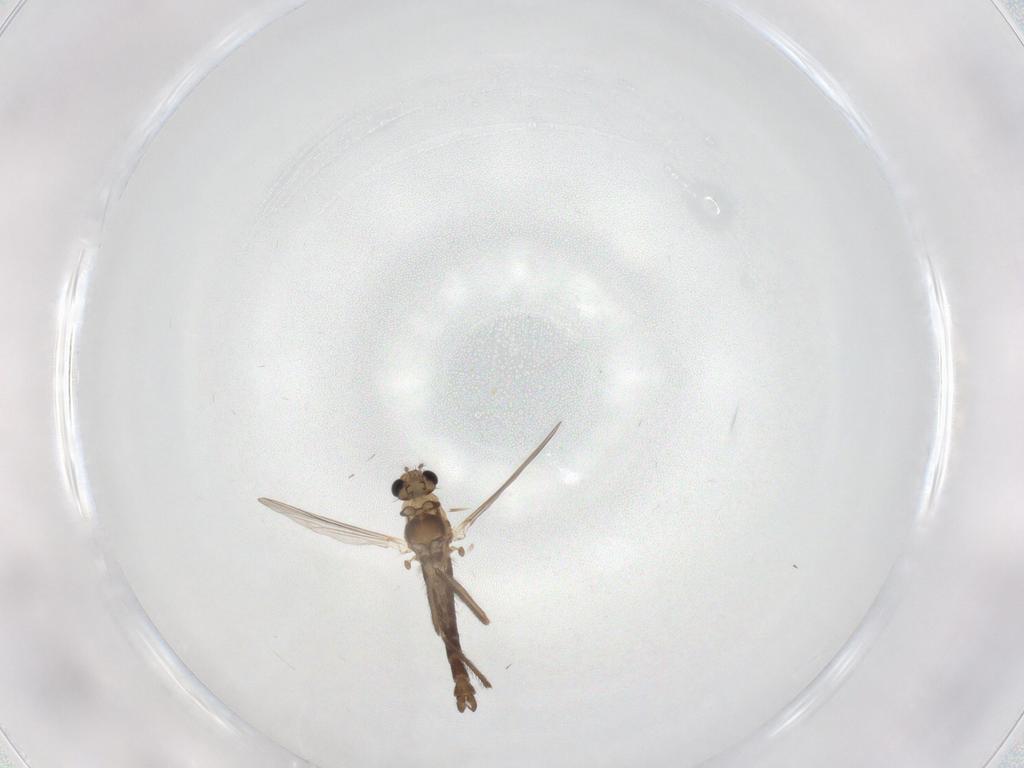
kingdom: Animalia
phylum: Arthropoda
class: Insecta
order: Diptera
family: Chironomidae
